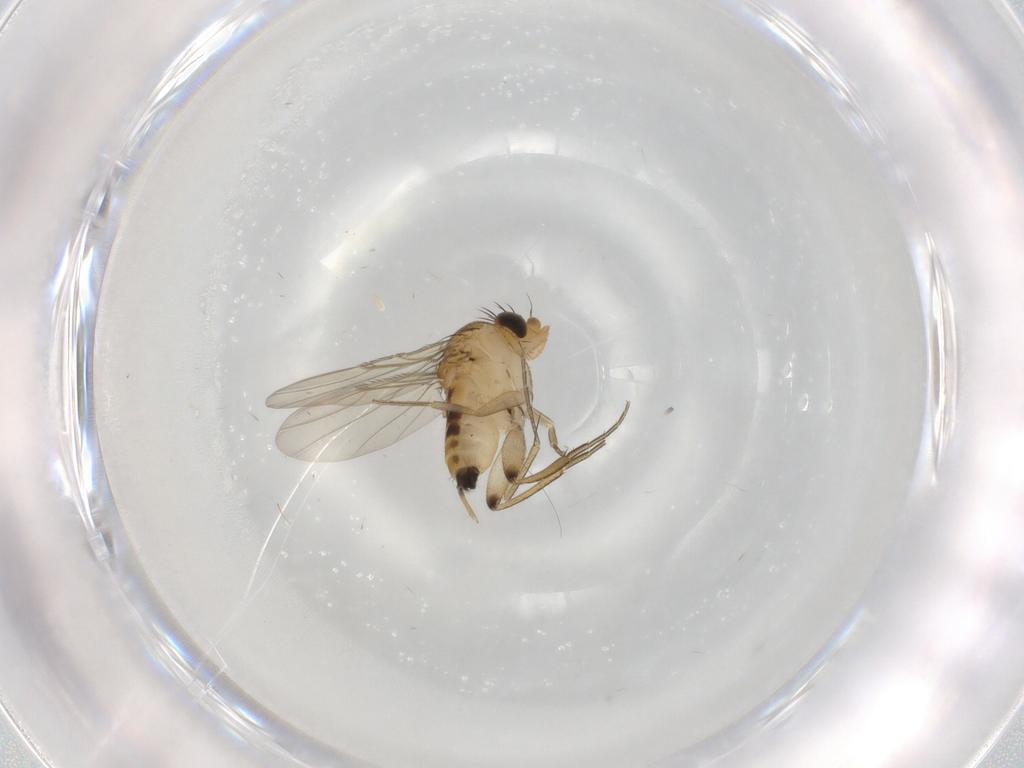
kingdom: Animalia
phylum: Arthropoda
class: Insecta
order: Diptera
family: Phoridae
